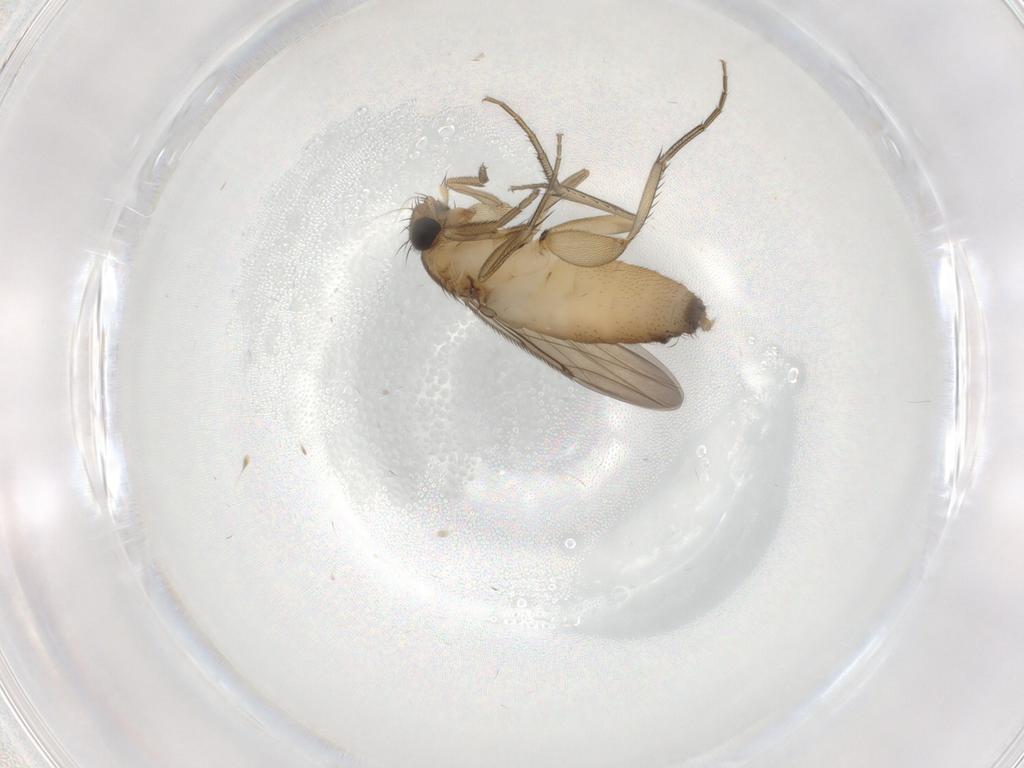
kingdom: Animalia
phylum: Arthropoda
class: Insecta
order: Diptera
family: Phoridae
